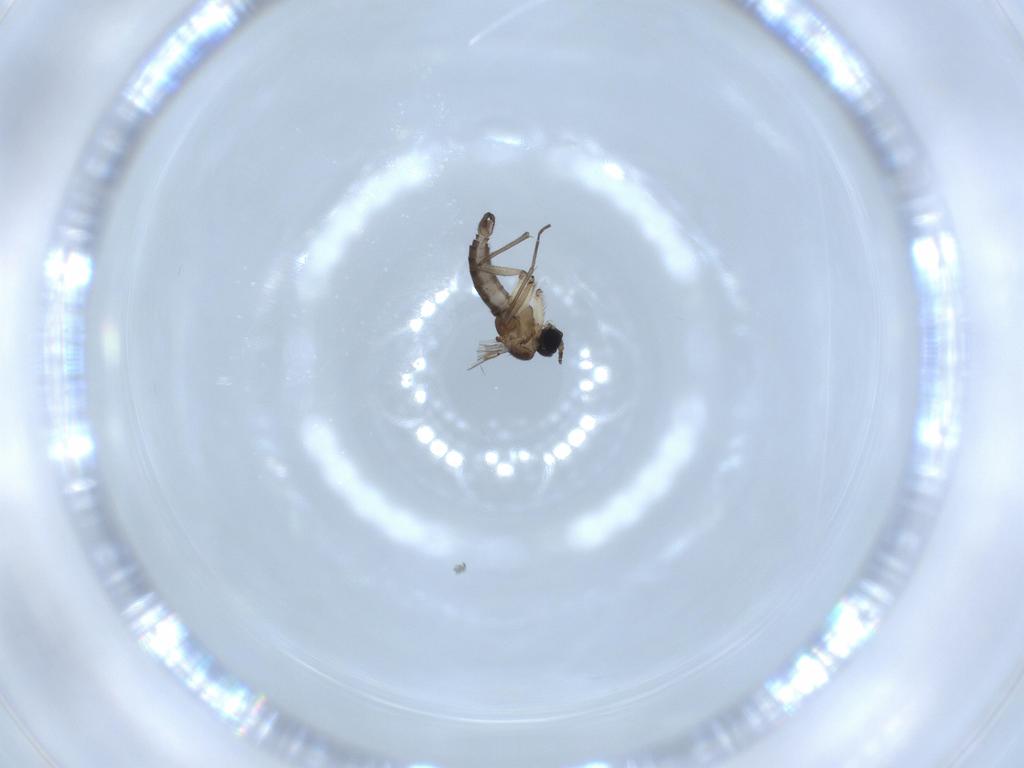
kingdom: Animalia
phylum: Arthropoda
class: Insecta
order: Diptera
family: Sciaridae
